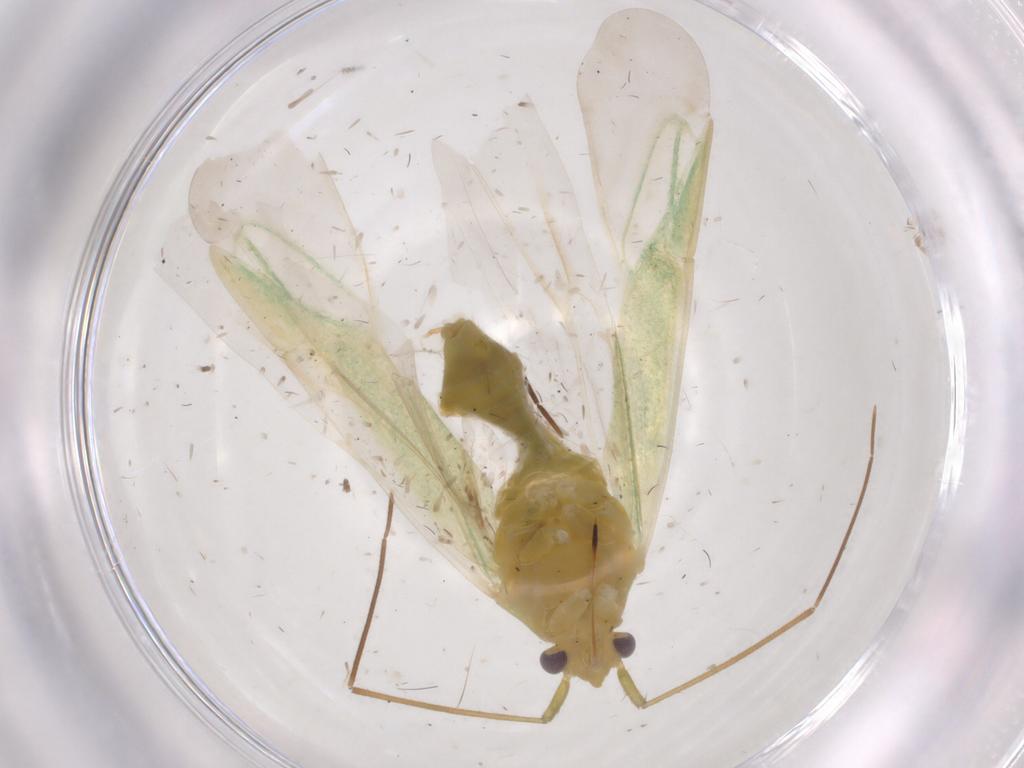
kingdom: Animalia
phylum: Arthropoda
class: Insecta
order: Hemiptera
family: Miridae
